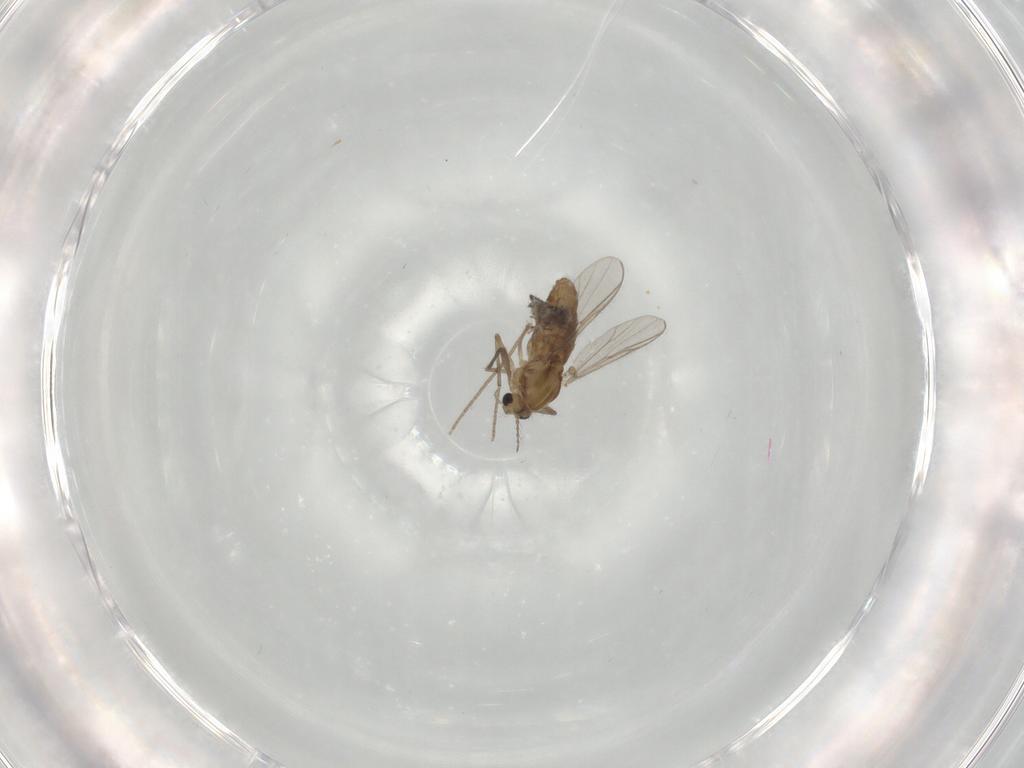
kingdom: Animalia
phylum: Arthropoda
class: Insecta
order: Diptera
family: Chironomidae
